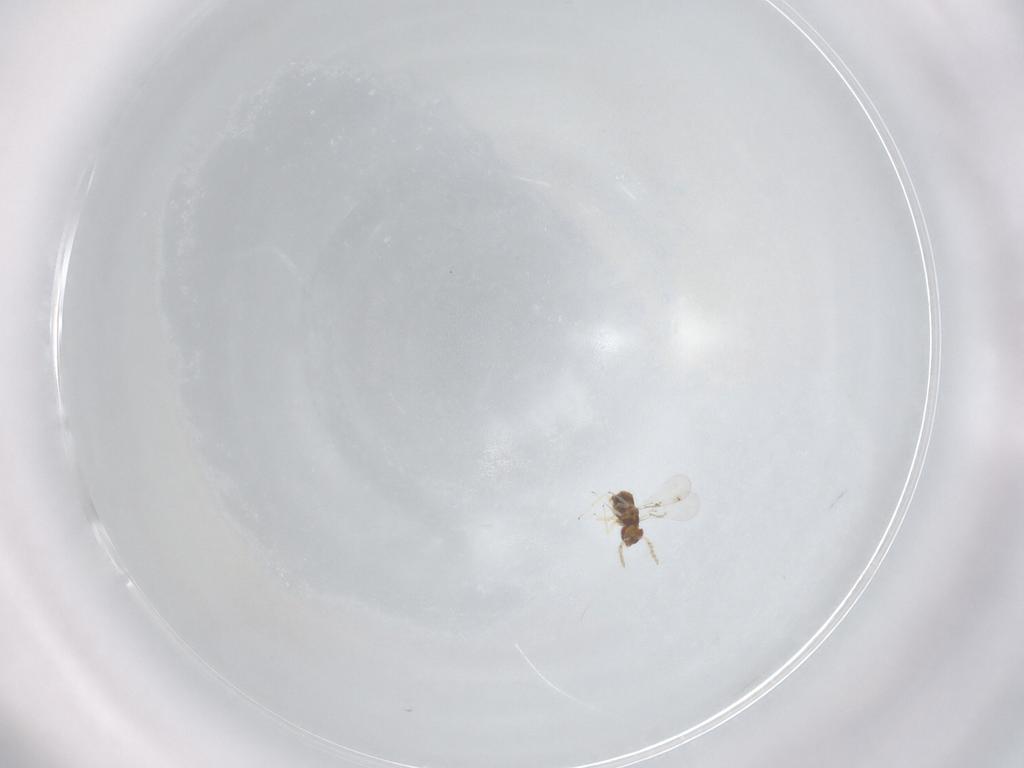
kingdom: Animalia
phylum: Arthropoda
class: Insecta
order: Hymenoptera
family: Trichogrammatidae
